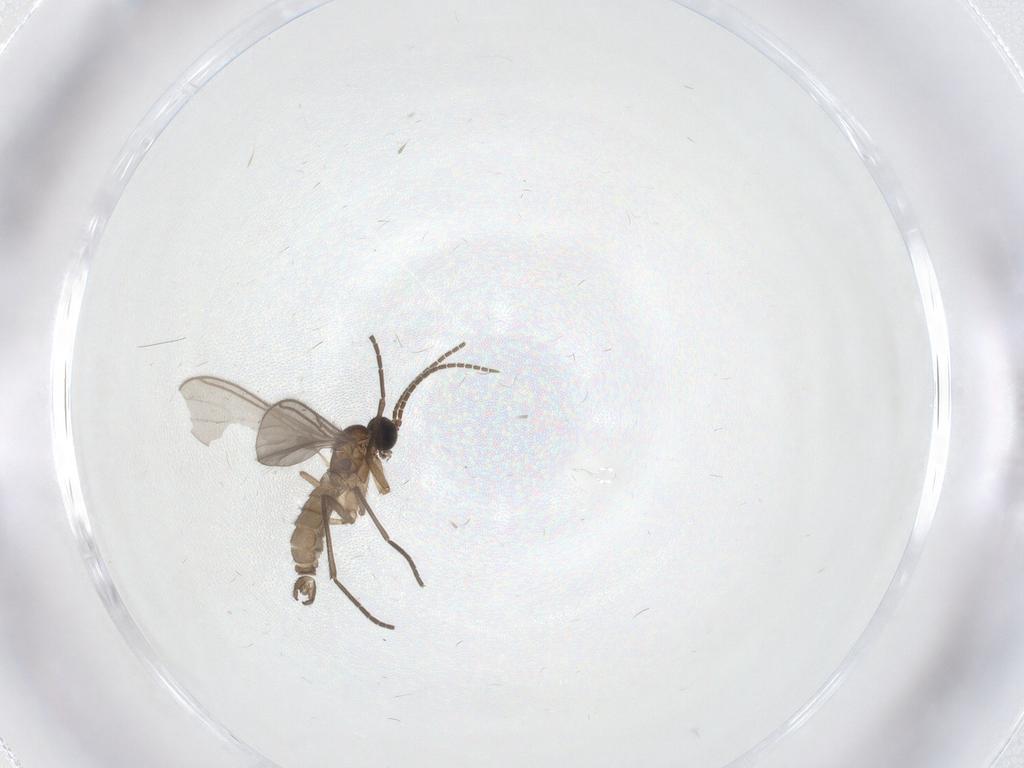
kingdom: Animalia
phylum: Arthropoda
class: Insecta
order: Diptera
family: Sciaridae
